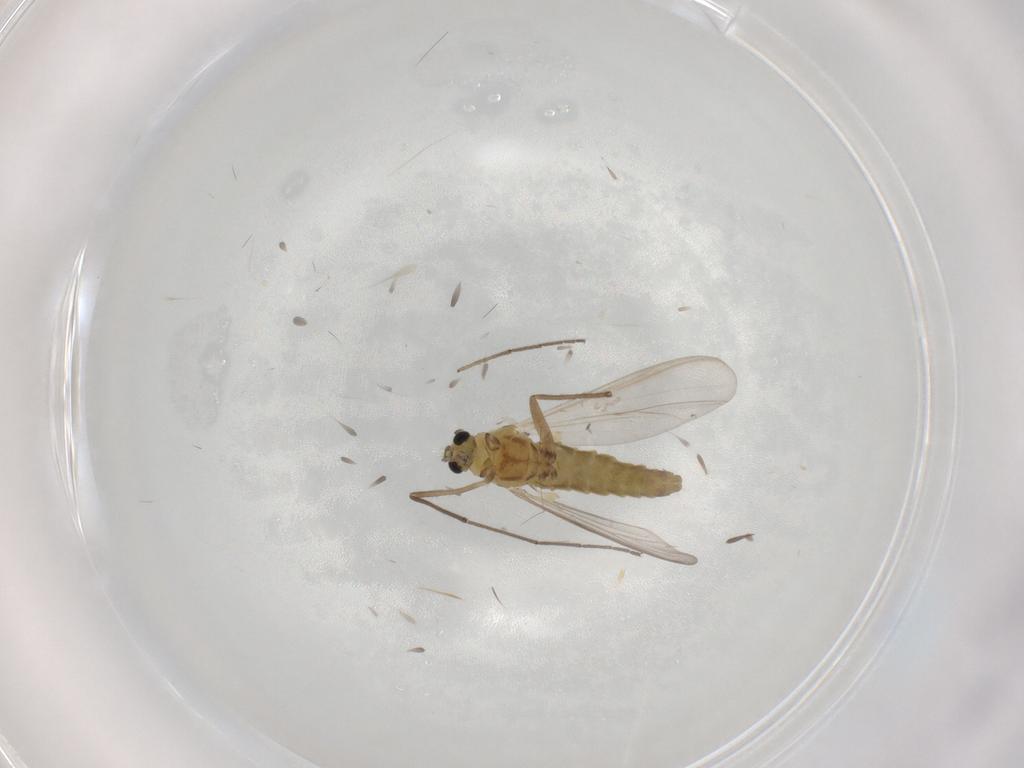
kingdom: Animalia
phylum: Arthropoda
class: Insecta
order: Diptera
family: Chironomidae
